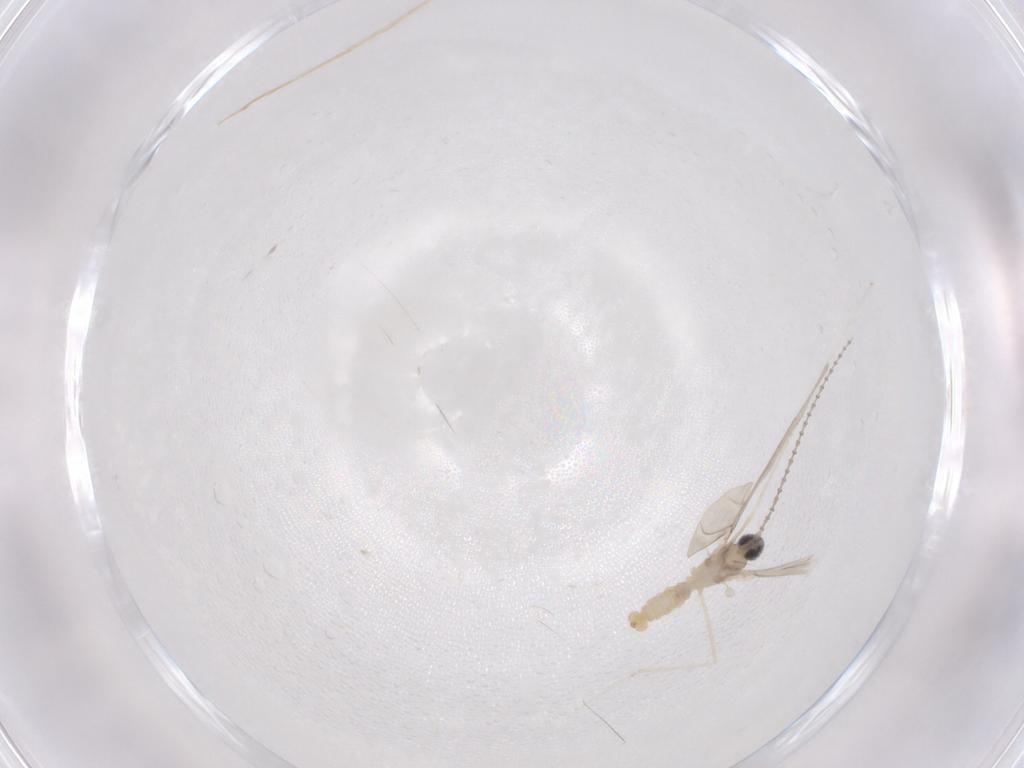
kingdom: Animalia
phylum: Arthropoda
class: Insecta
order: Diptera
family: Cecidomyiidae
